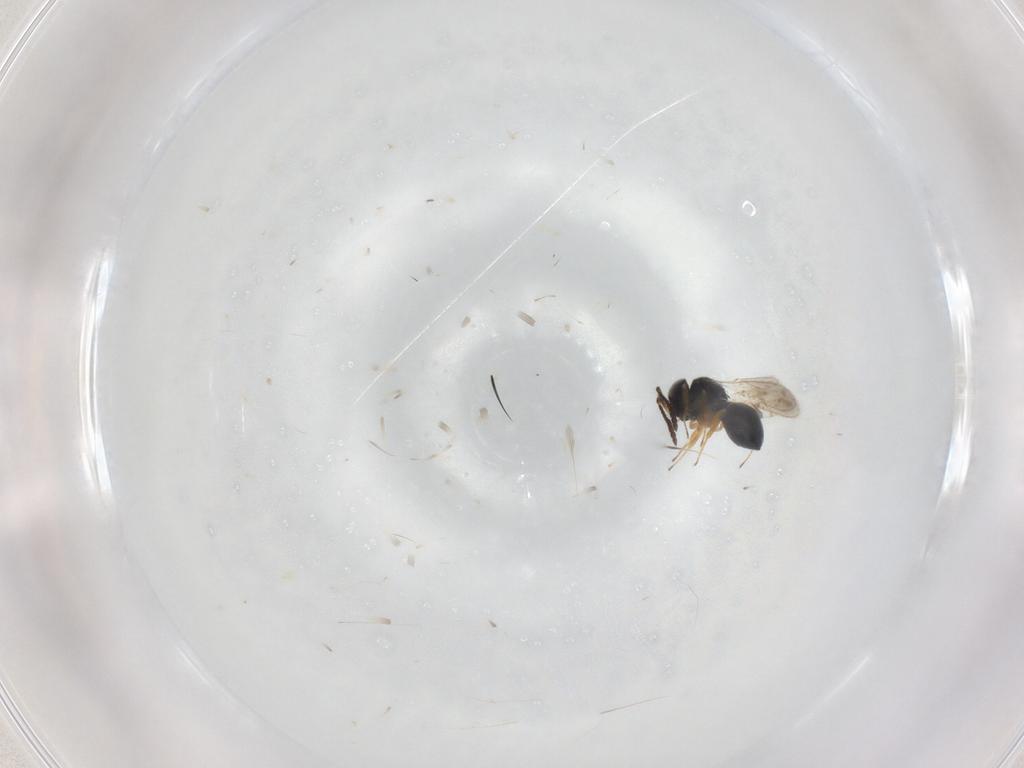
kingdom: Animalia
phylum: Arthropoda
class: Insecta
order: Hymenoptera
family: Scelionidae
